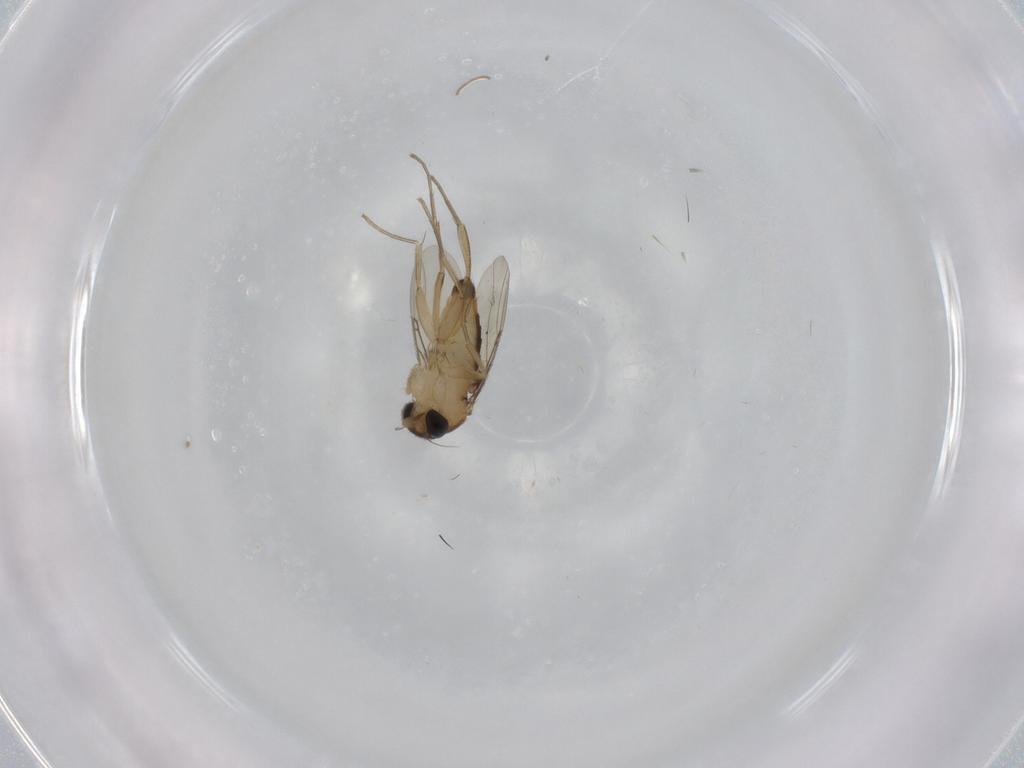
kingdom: Animalia
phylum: Arthropoda
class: Insecta
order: Diptera
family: Phoridae
